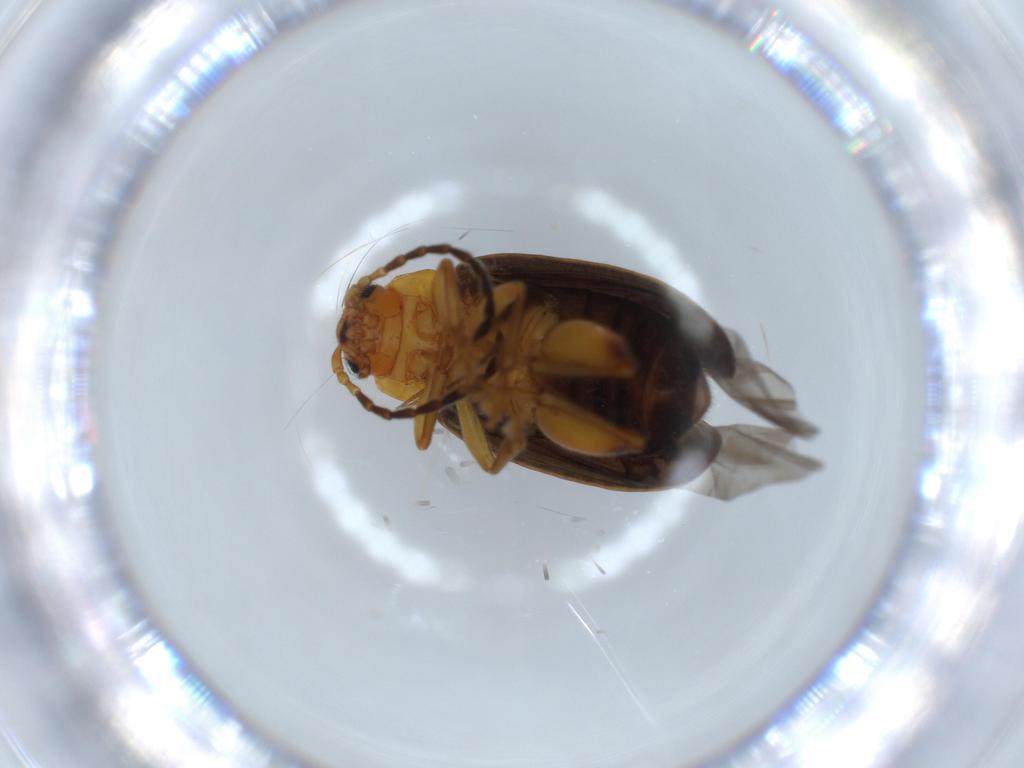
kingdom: Animalia
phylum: Arthropoda
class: Insecta
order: Coleoptera
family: Chrysomelidae
